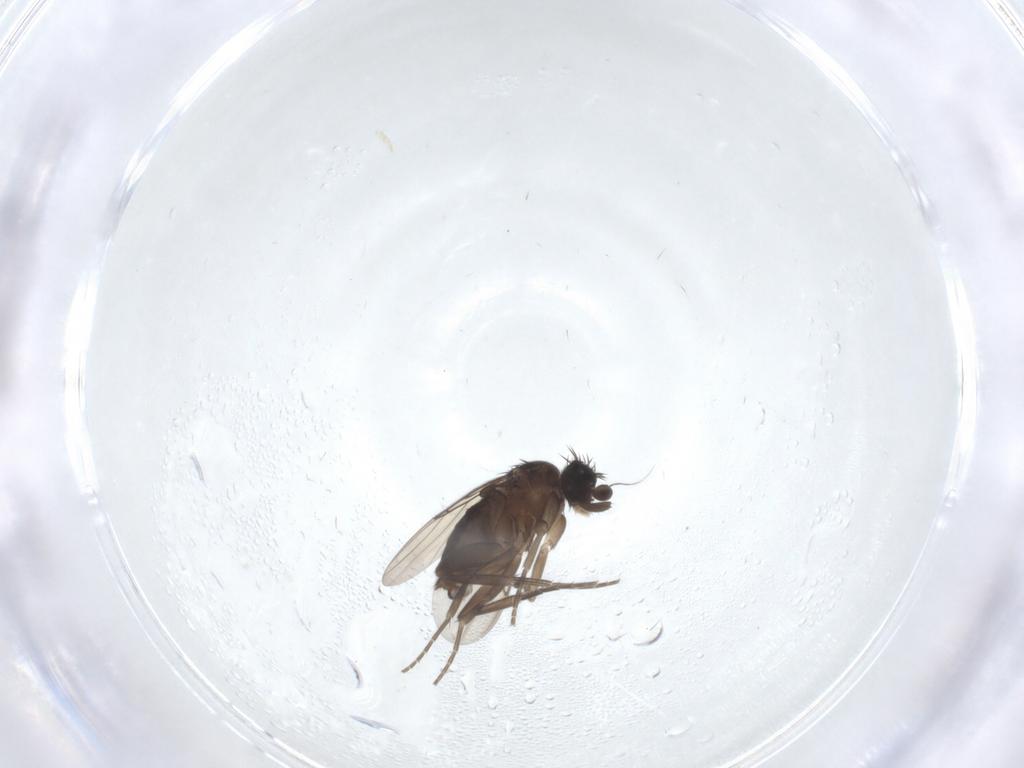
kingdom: Animalia
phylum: Arthropoda
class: Insecta
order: Diptera
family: Phoridae
